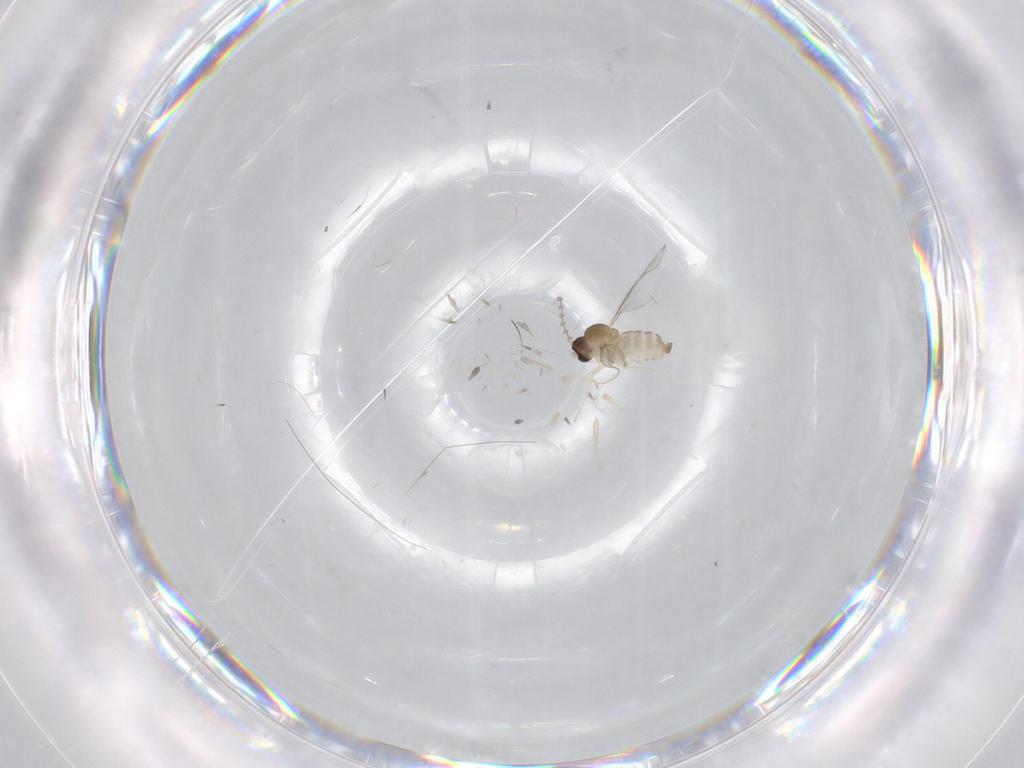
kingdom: Animalia
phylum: Arthropoda
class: Insecta
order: Diptera
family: Cecidomyiidae
